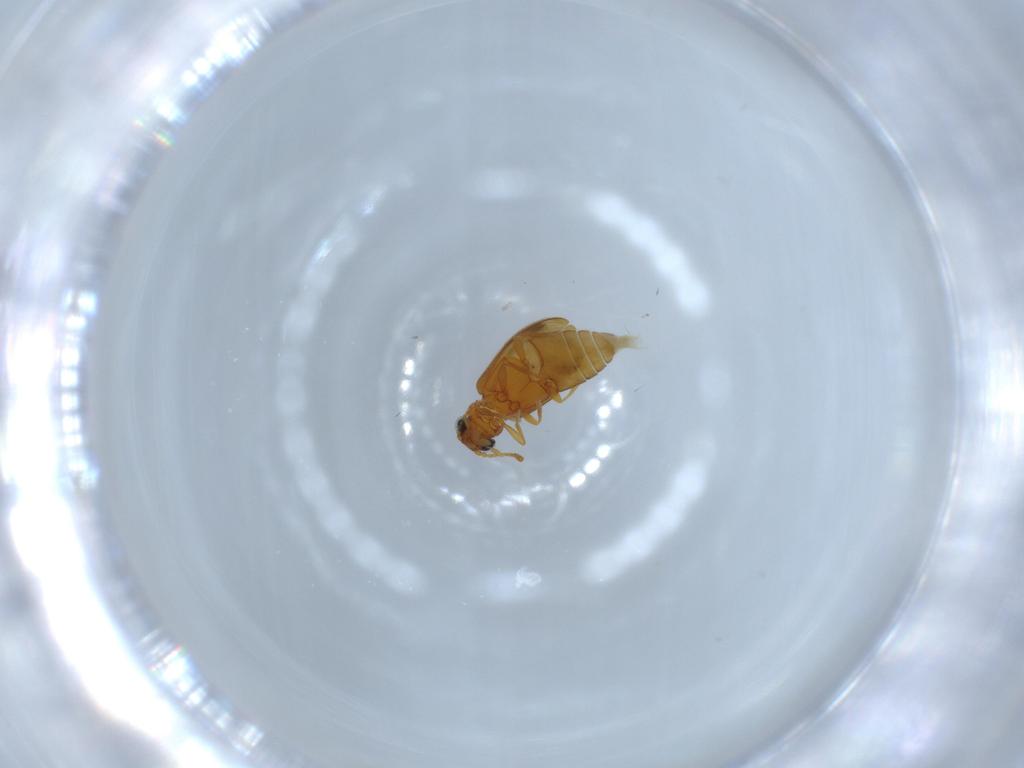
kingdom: Animalia
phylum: Arthropoda
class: Insecta
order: Coleoptera
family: Aderidae
